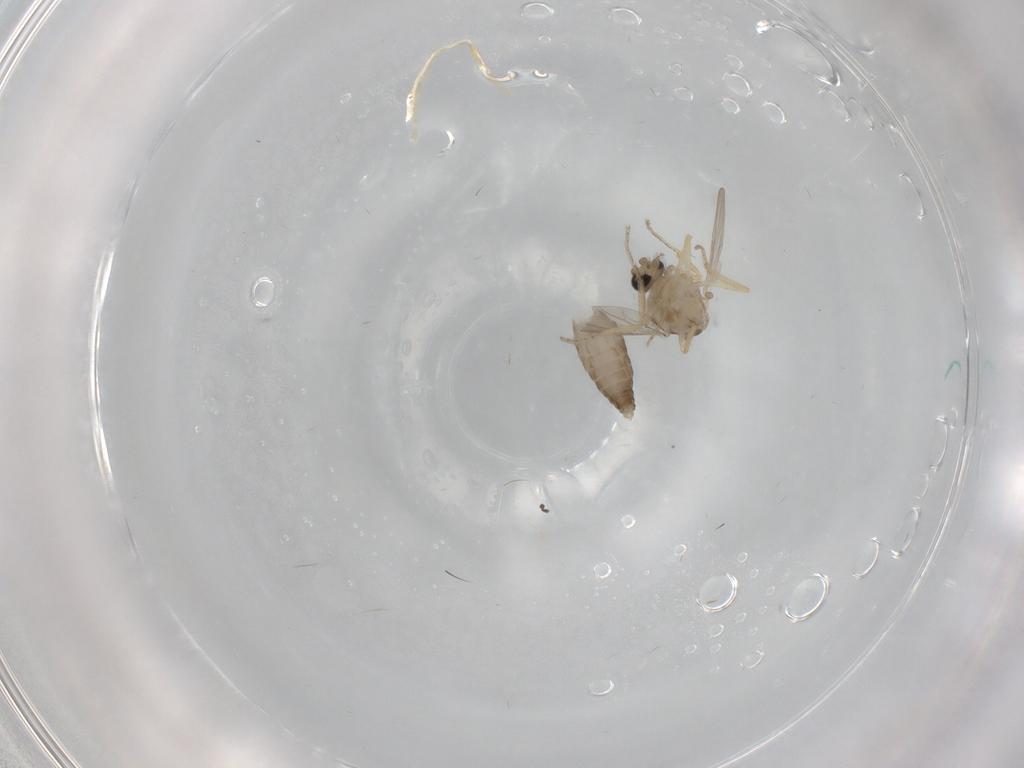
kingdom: Animalia
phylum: Arthropoda
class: Insecta
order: Diptera
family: Ceratopogonidae
